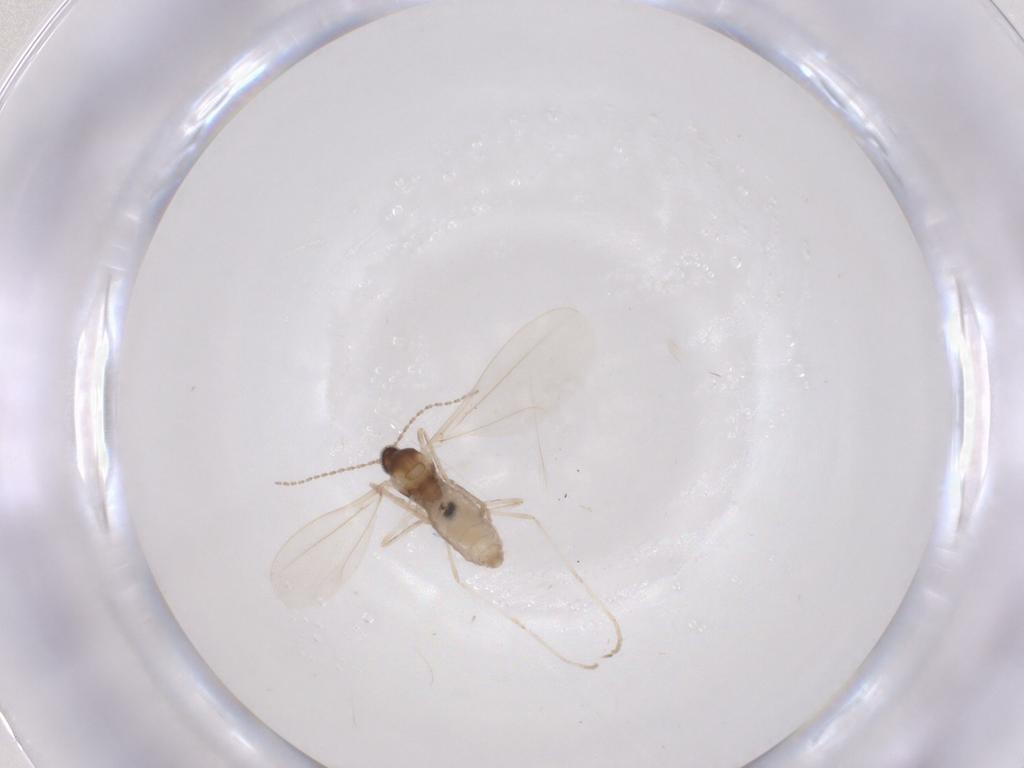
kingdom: Animalia
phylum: Arthropoda
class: Insecta
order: Diptera
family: Cecidomyiidae
